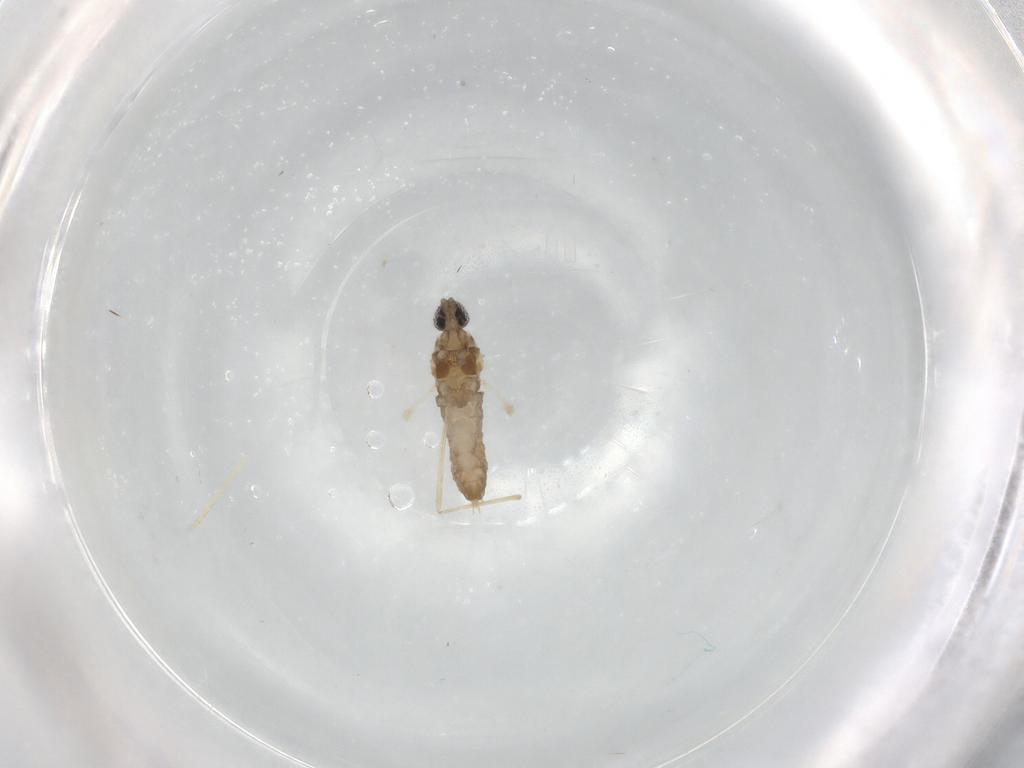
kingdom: Animalia
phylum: Arthropoda
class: Insecta
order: Diptera
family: Cecidomyiidae
